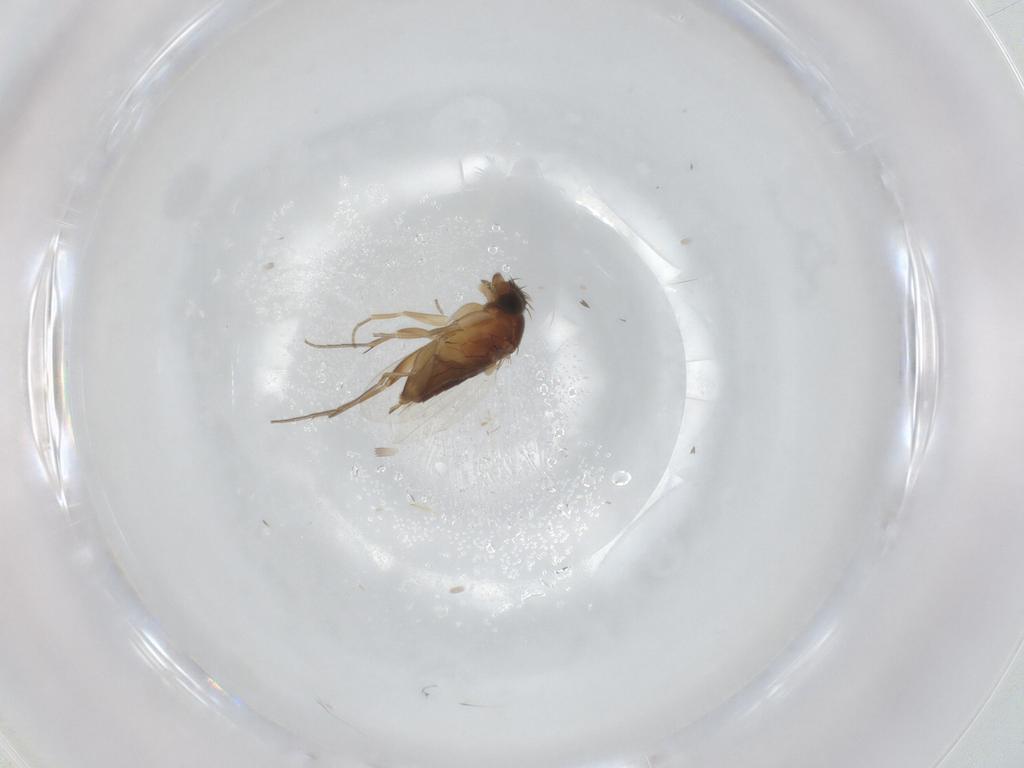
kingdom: Animalia
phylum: Arthropoda
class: Insecta
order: Diptera
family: Phoridae
